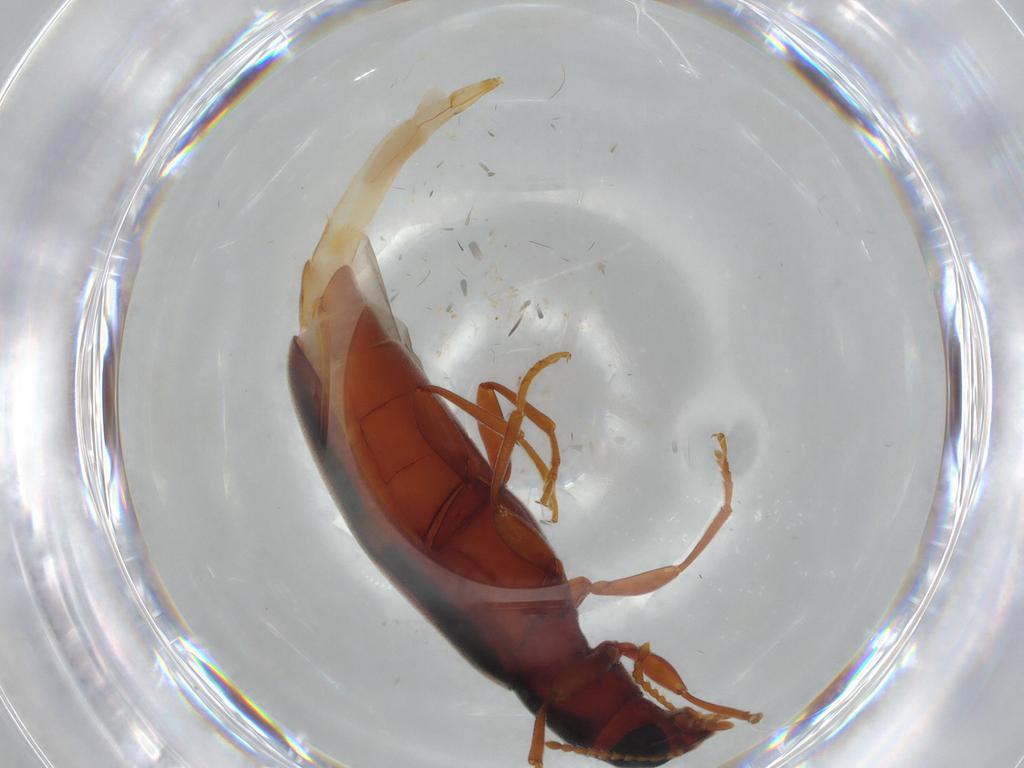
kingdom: Animalia
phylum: Arthropoda
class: Insecta
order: Coleoptera
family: Mycteridae
